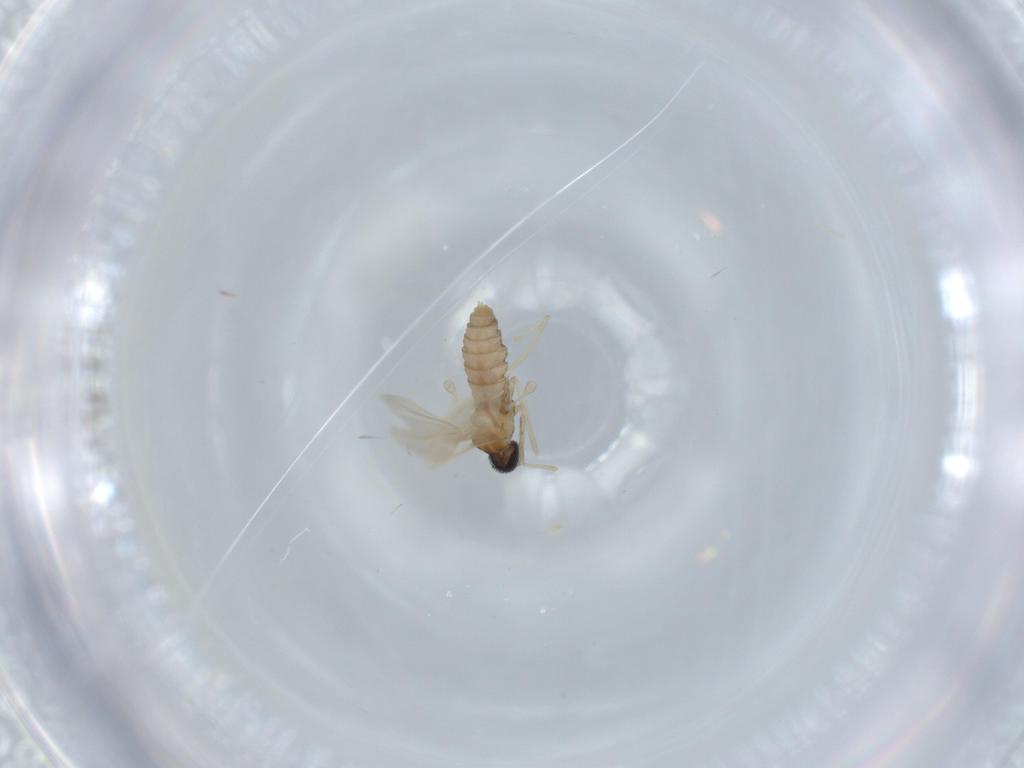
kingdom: Animalia
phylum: Arthropoda
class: Insecta
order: Diptera
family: Cecidomyiidae
